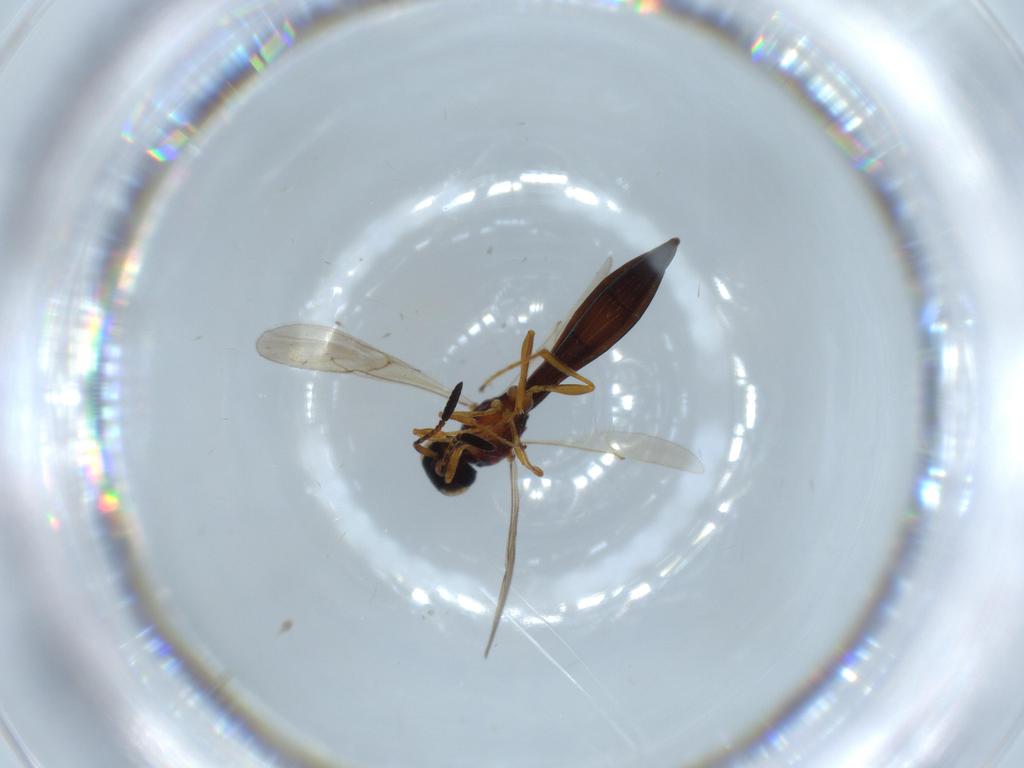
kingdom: Animalia
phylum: Arthropoda
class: Insecta
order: Hymenoptera
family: Scelionidae
